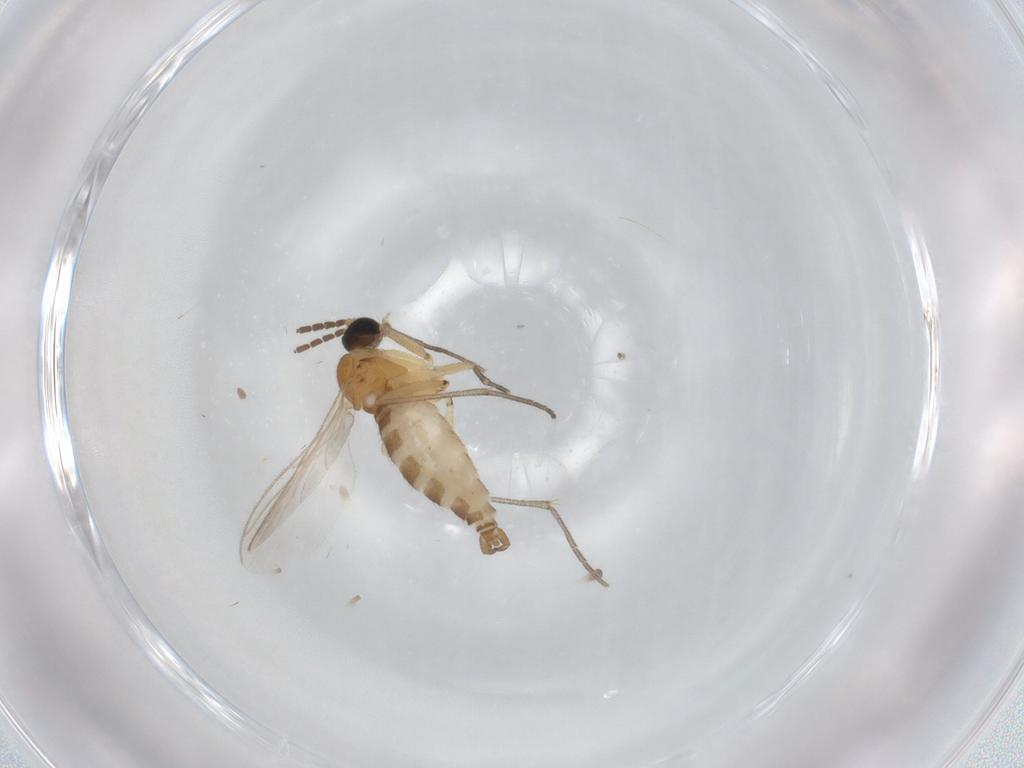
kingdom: Animalia
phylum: Arthropoda
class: Insecta
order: Diptera
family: Sciaridae
